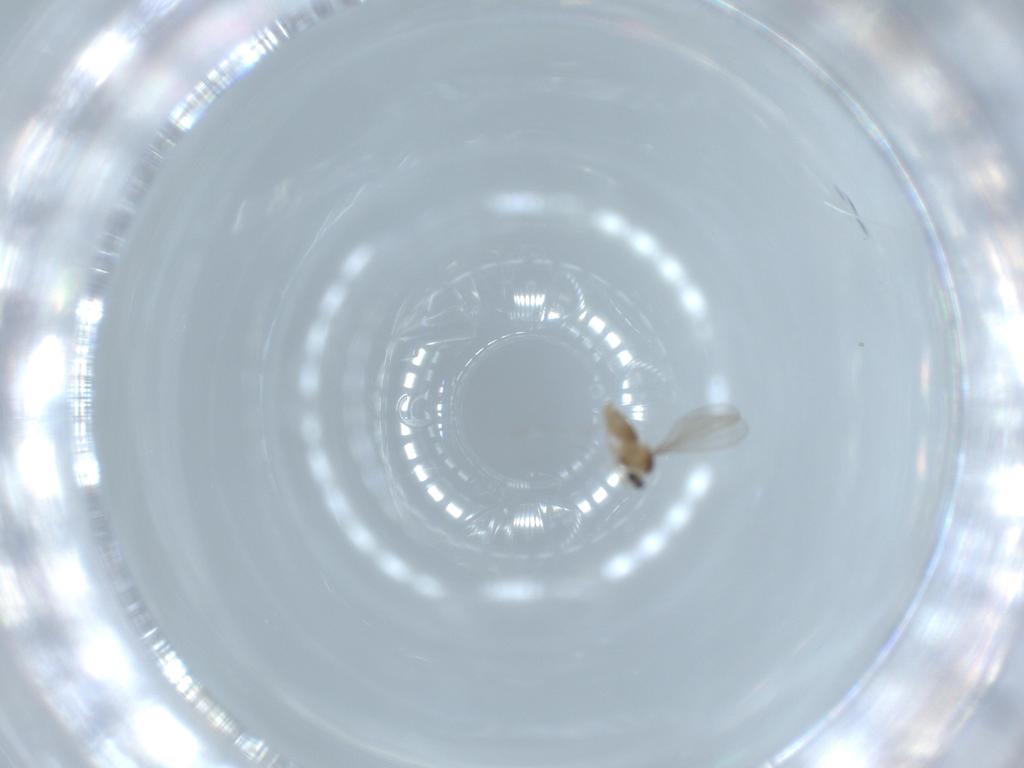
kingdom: Animalia
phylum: Arthropoda
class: Insecta
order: Diptera
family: Cecidomyiidae
